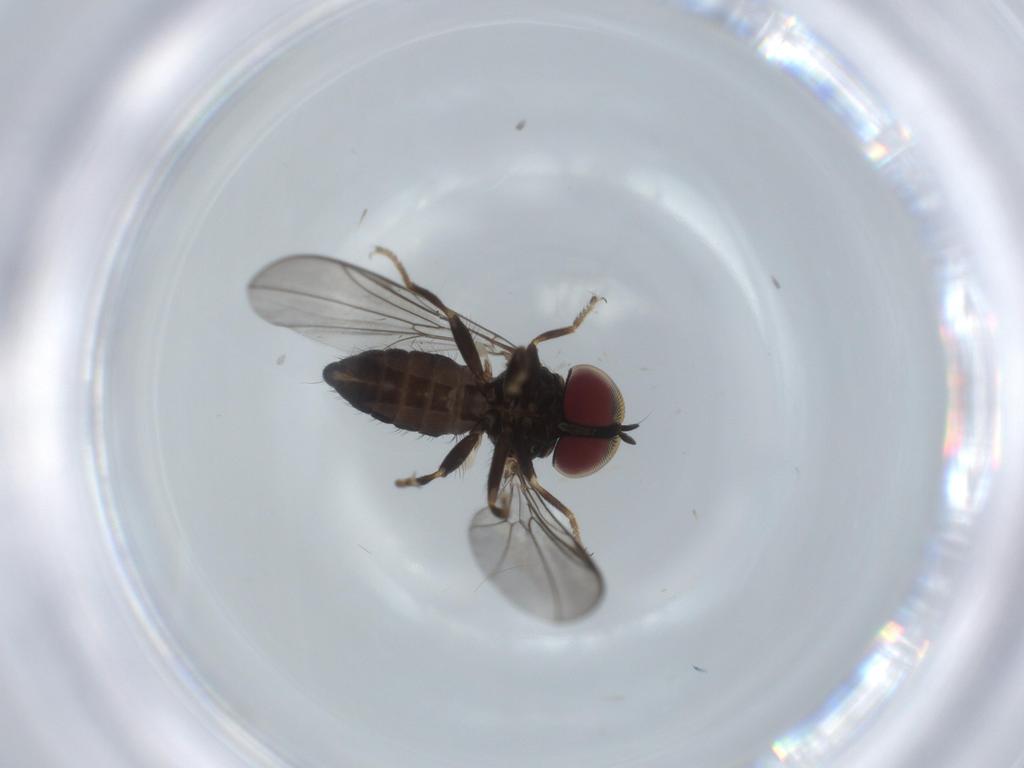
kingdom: Animalia
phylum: Arthropoda
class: Insecta
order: Diptera
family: Pipunculidae
